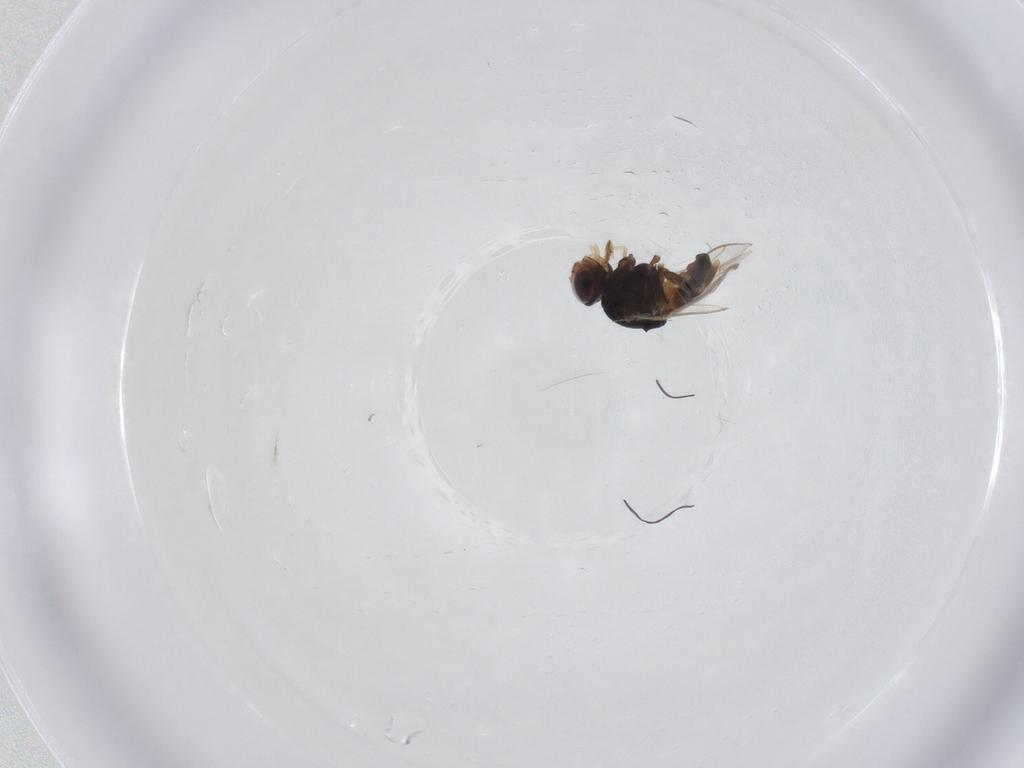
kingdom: Animalia
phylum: Arthropoda
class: Insecta
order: Diptera
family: Chloropidae
